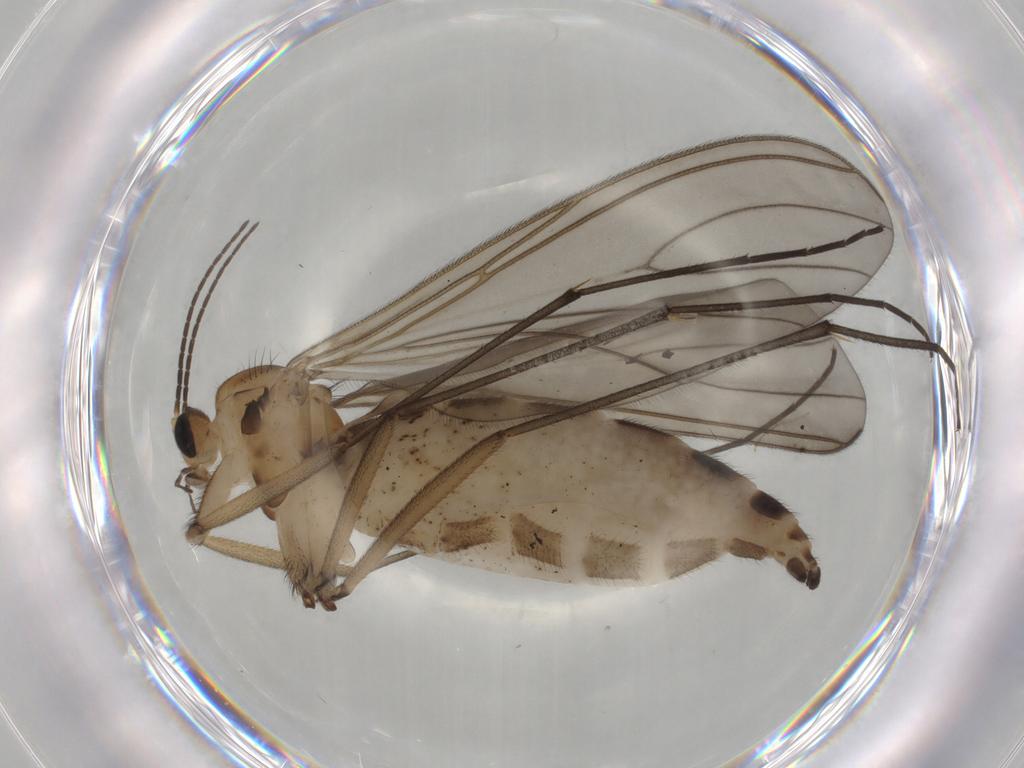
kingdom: Animalia
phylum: Arthropoda
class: Insecta
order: Diptera
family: Sciaridae
